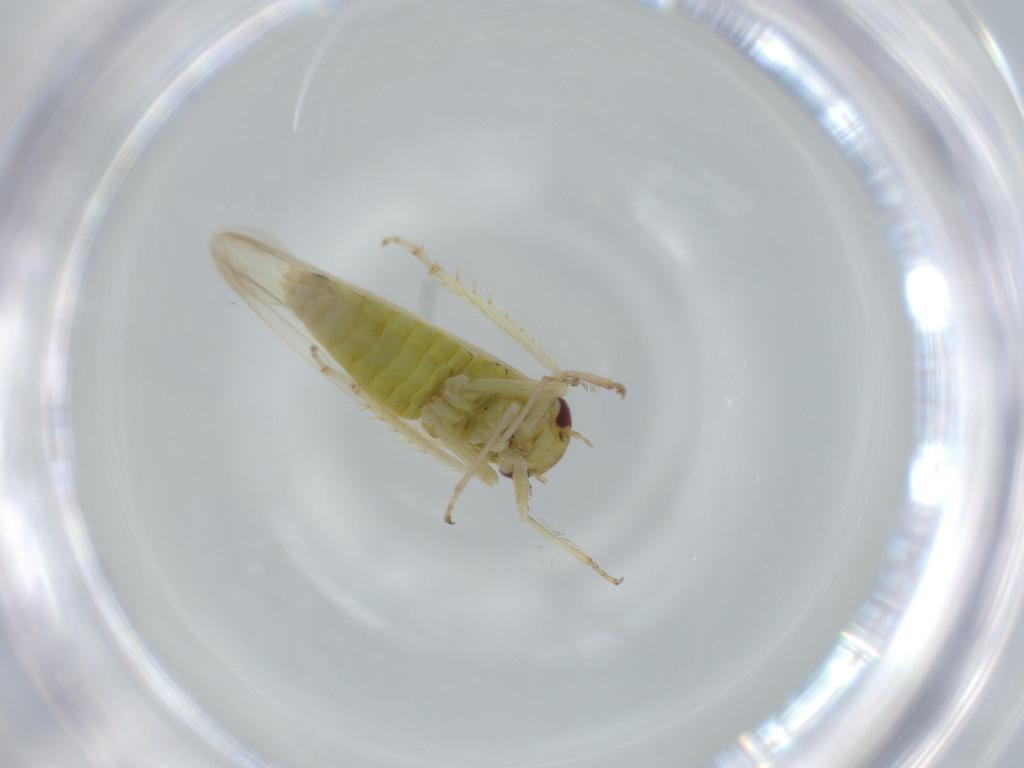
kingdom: Animalia
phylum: Arthropoda
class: Insecta
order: Hemiptera
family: Cicadellidae
